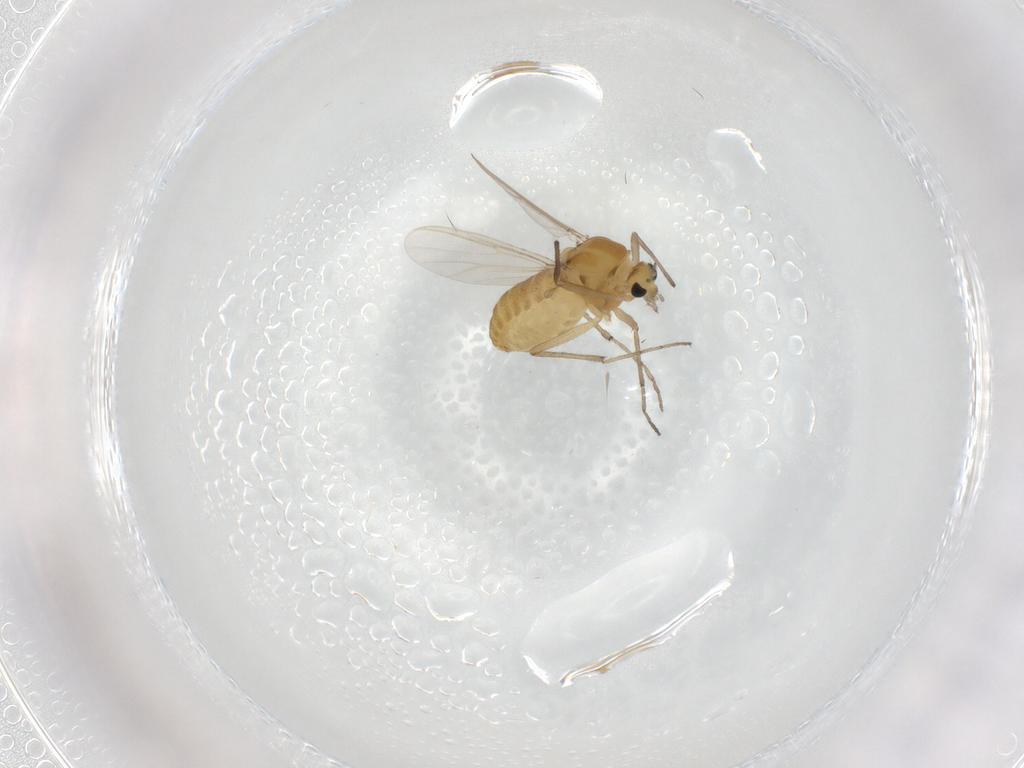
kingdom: Animalia
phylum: Arthropoda
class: Insecta
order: Diptera
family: Chironomidae
